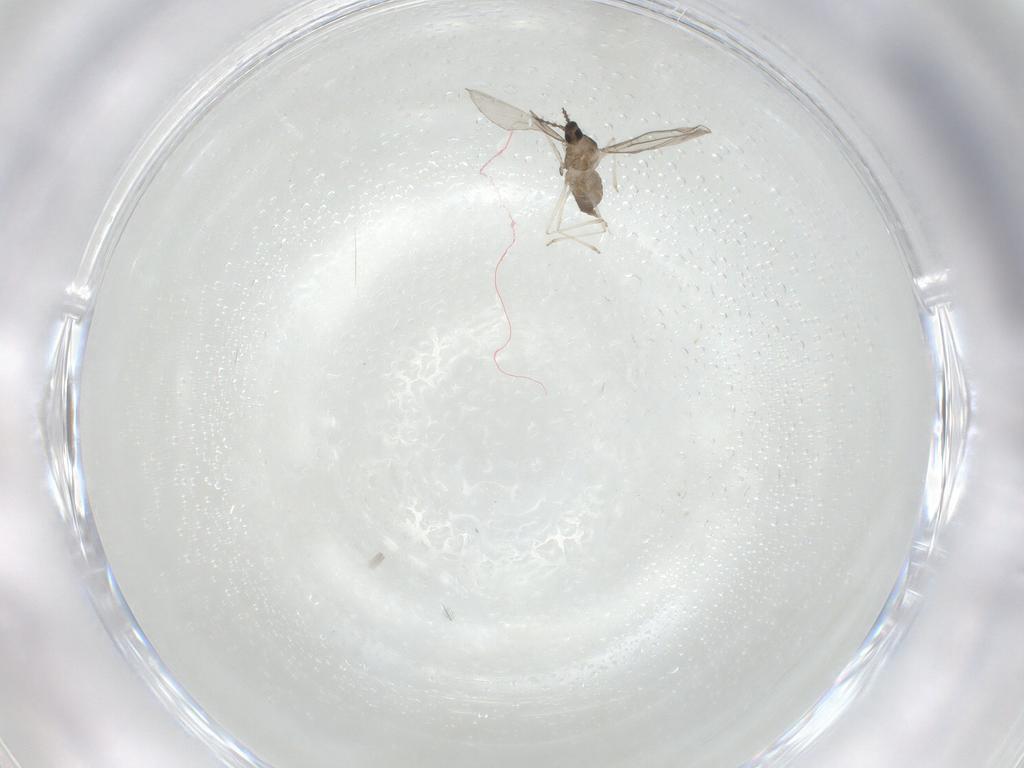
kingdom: Animalia
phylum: Arthropoda
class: Insecta
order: Diptera
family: Cecidomyiidae
